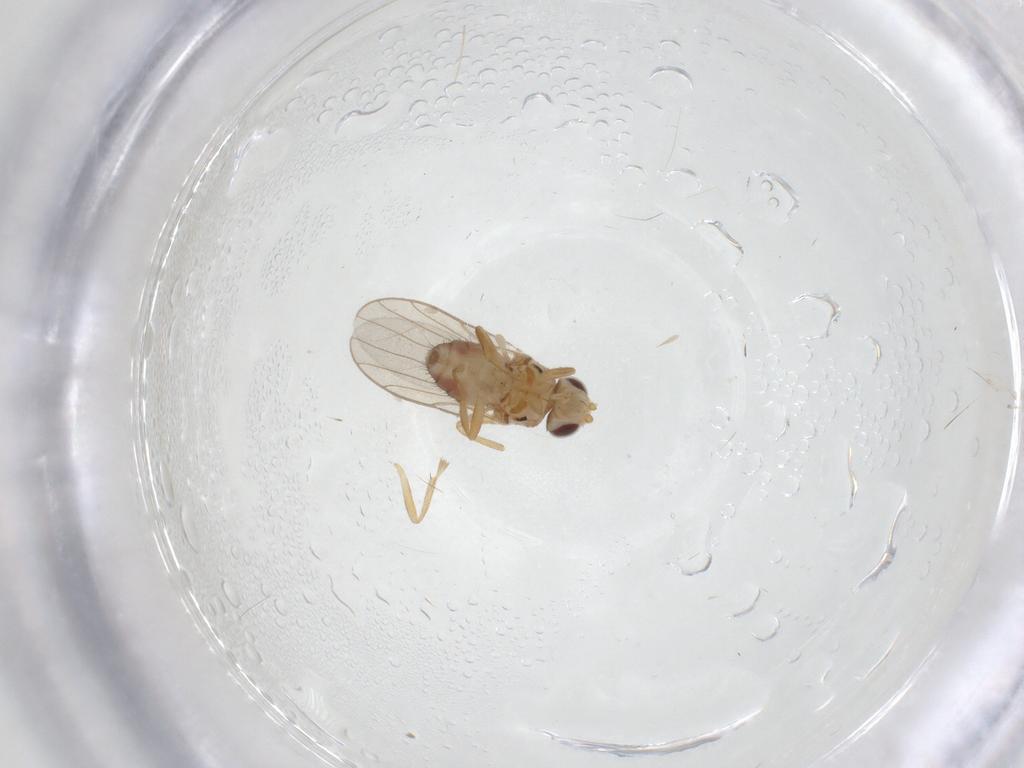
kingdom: Animalia
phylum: Arthropoda
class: Insecta
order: Diptera
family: Chloropidae
